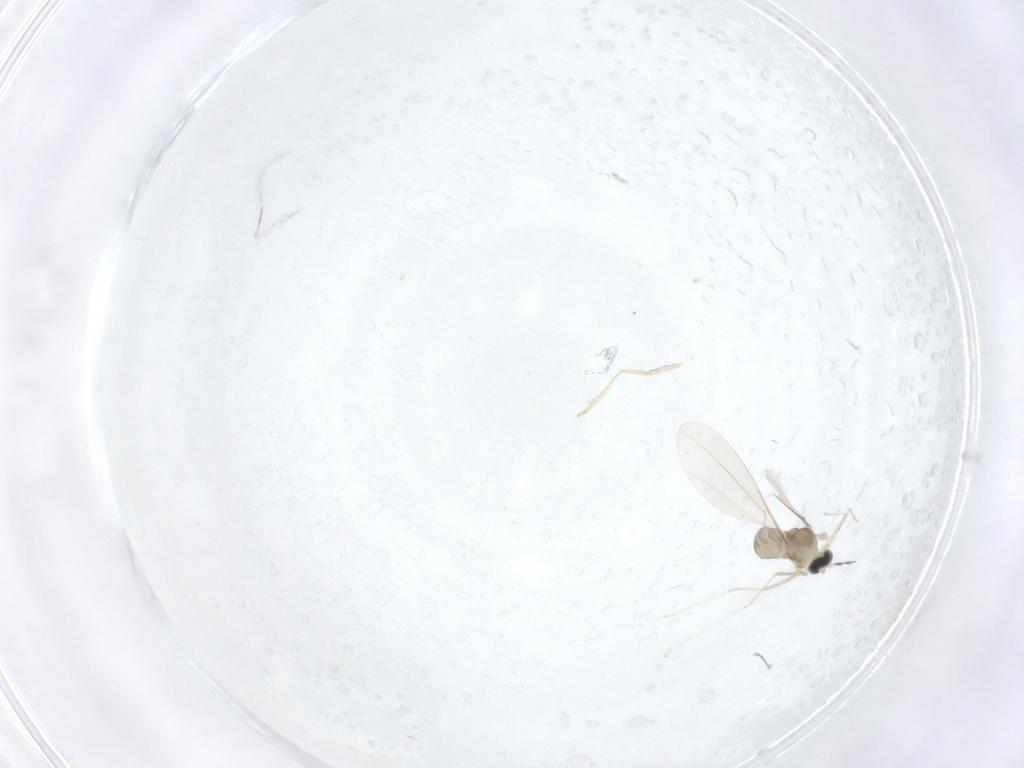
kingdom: Animalia
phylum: Arthropoda
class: Insecta
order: Diptera
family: Cecidomyiidae
